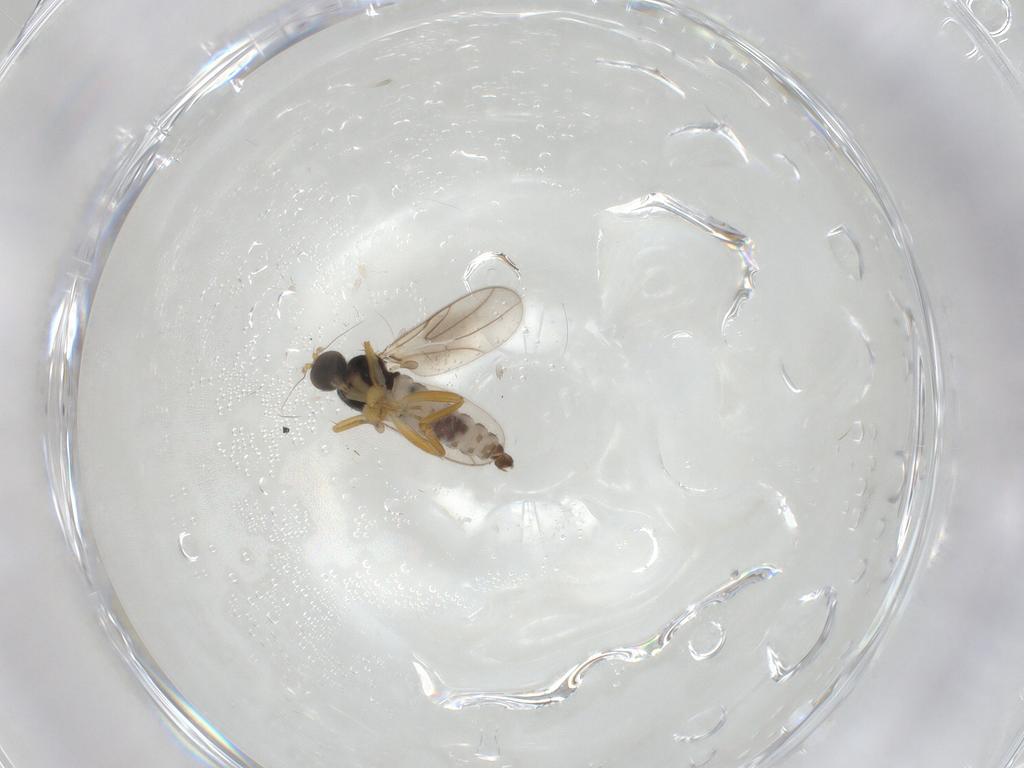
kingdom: Animalia
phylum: Arthropoda
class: Insecta
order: Diptera
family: Hybotidae
